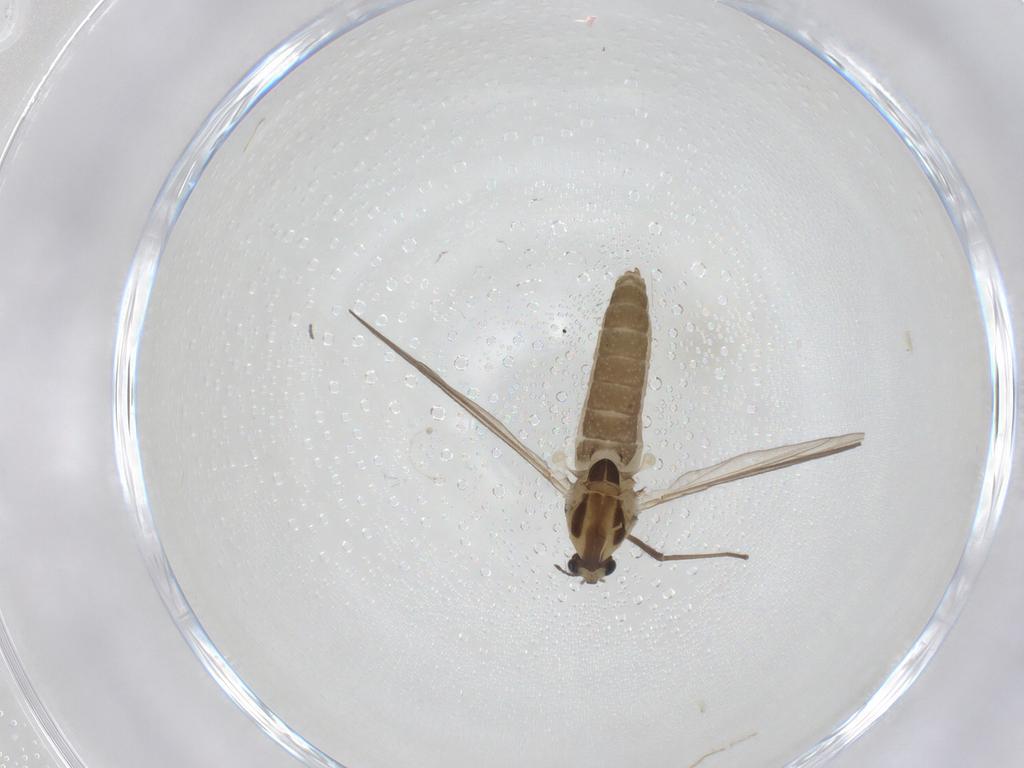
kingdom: Animalia
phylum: Arthropoda
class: Insecta
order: Diptera
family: Chironomidae
